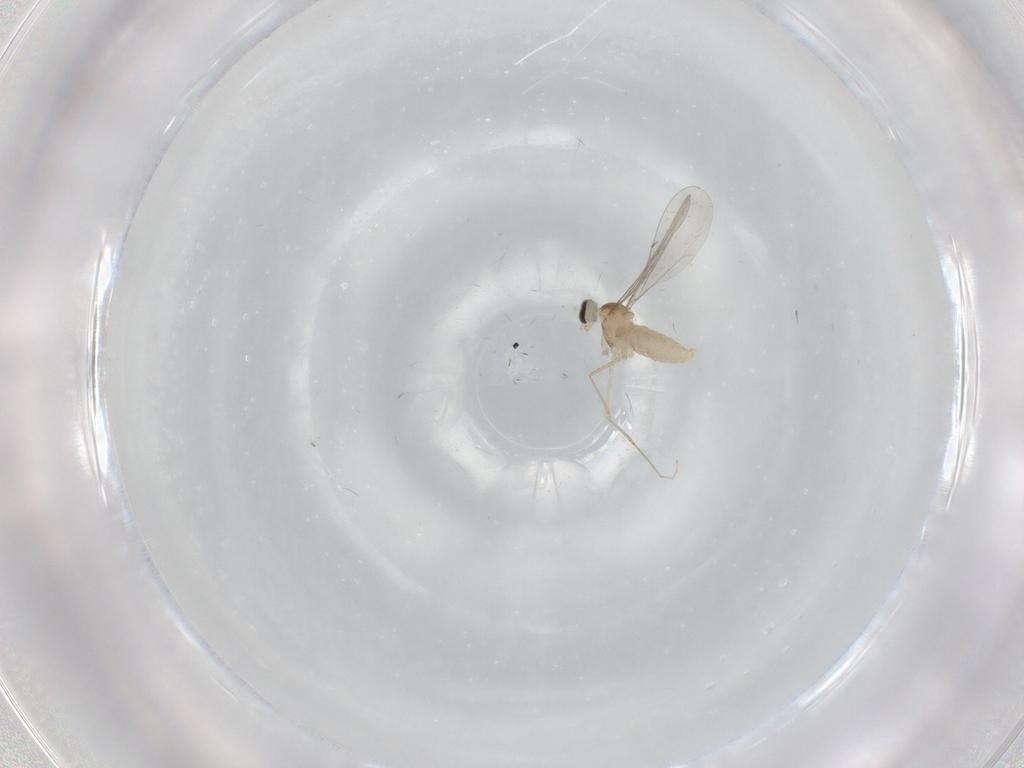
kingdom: Animalia
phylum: Arthropoda
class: Insecta
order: Diptera
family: Cecidomyiidae
